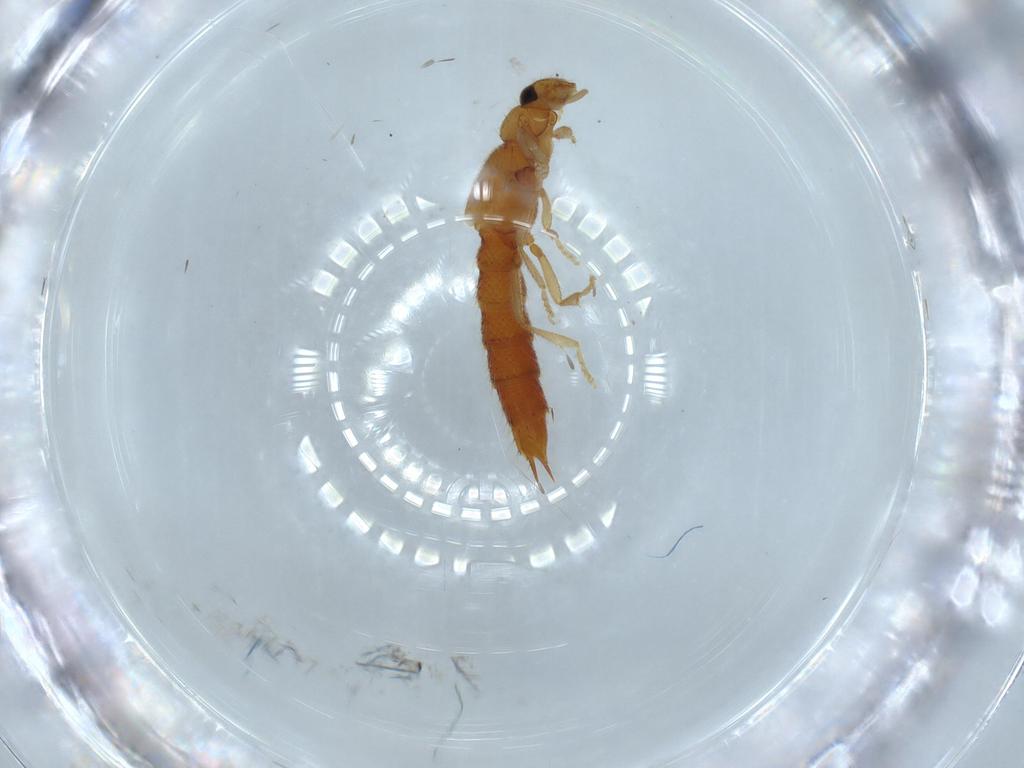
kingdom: Animalia
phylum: Arthropoda
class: Insecta
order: Coleoptera
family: Staphylinidae
